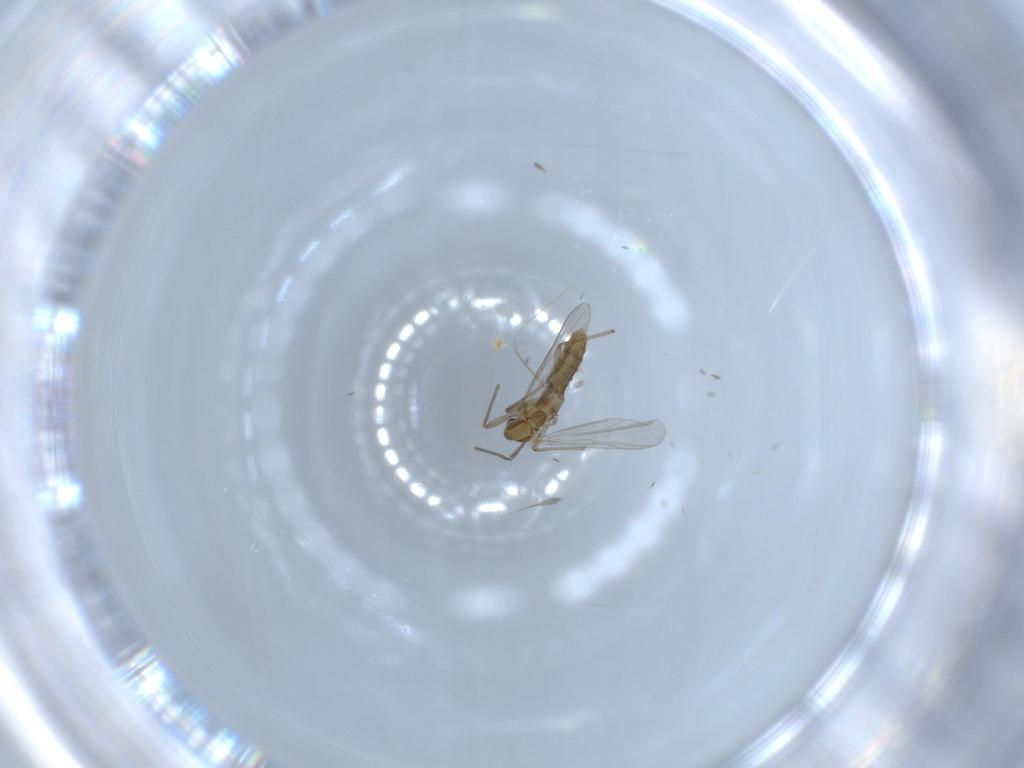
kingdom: Animalia
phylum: Arthropoda
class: Insecta
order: Diptera
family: Chironomidae
